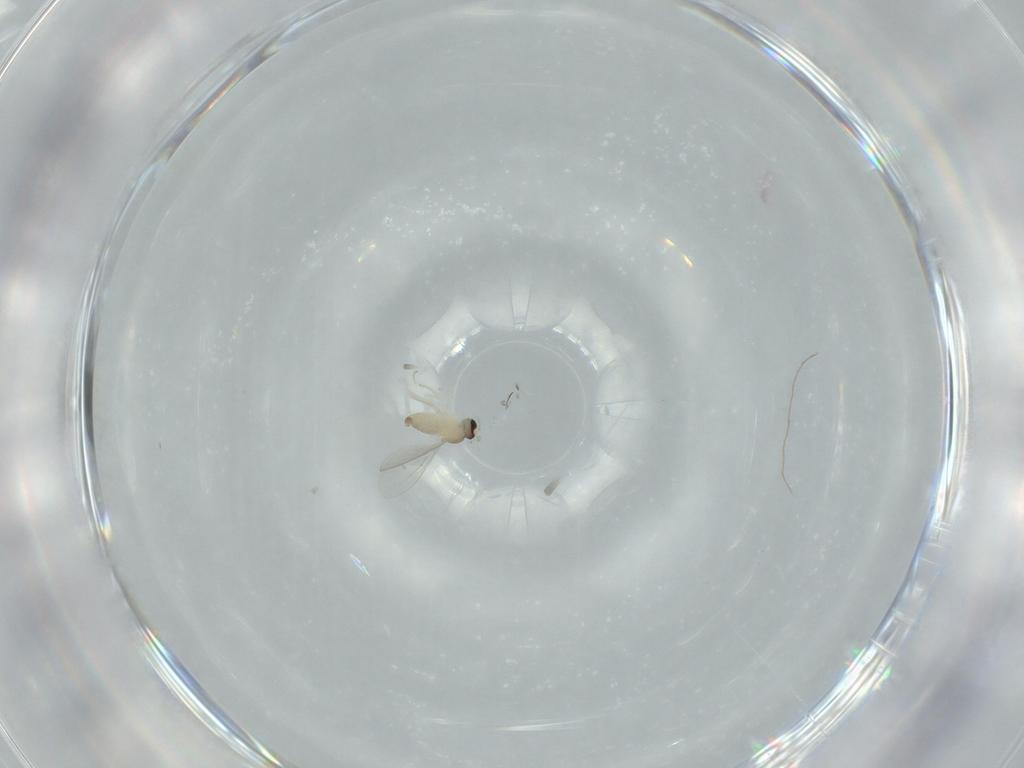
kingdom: Animalia
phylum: Arthropoda
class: Insecta
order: Diptera
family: Cecidomyiidae
